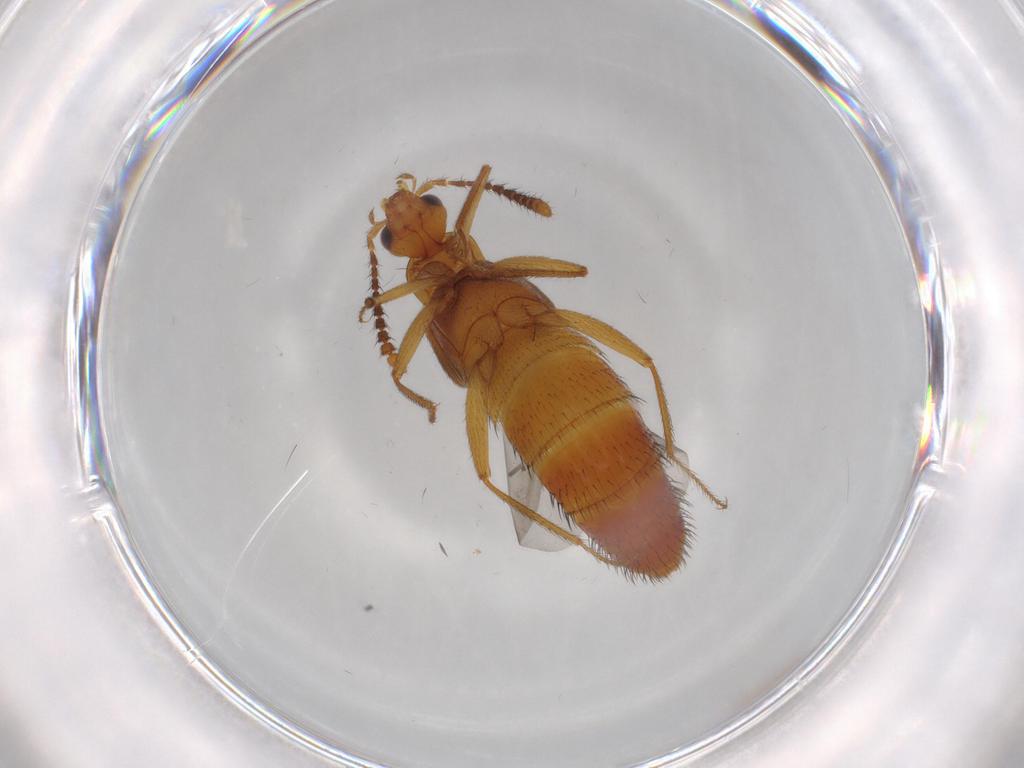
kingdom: Animalia
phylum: Arthropoda
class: Insecta
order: Coleoptera
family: Staphylinidae
